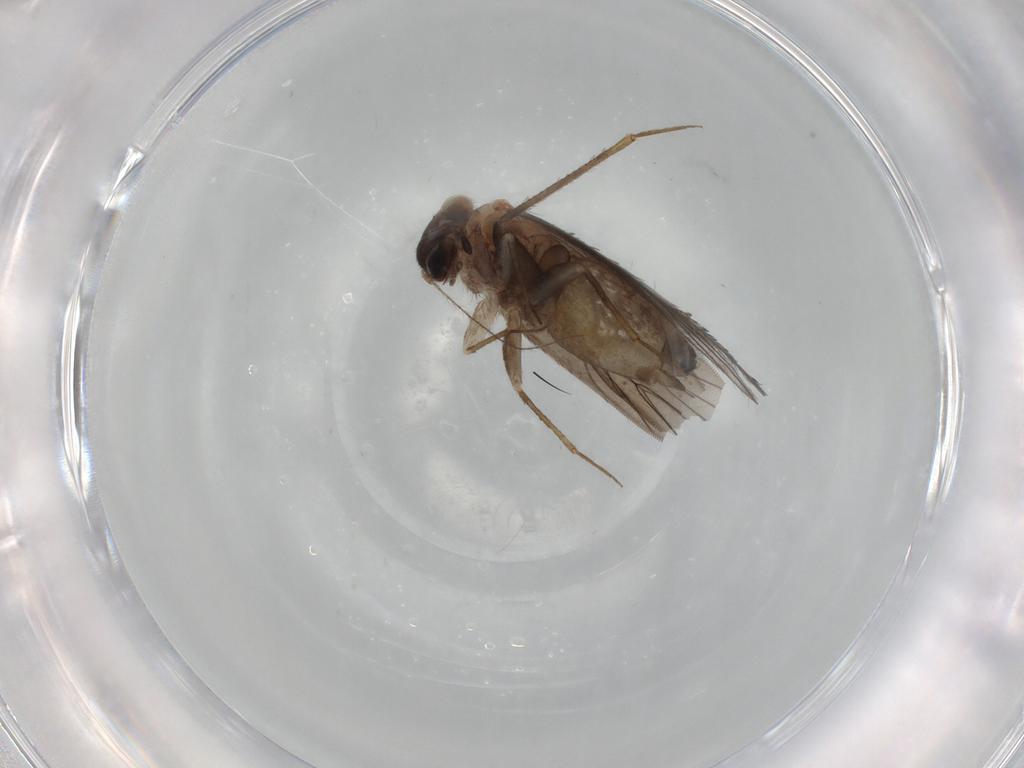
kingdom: Animalia
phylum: Arthropoda
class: Insecta
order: Psocodea
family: Lepidopsocidae
